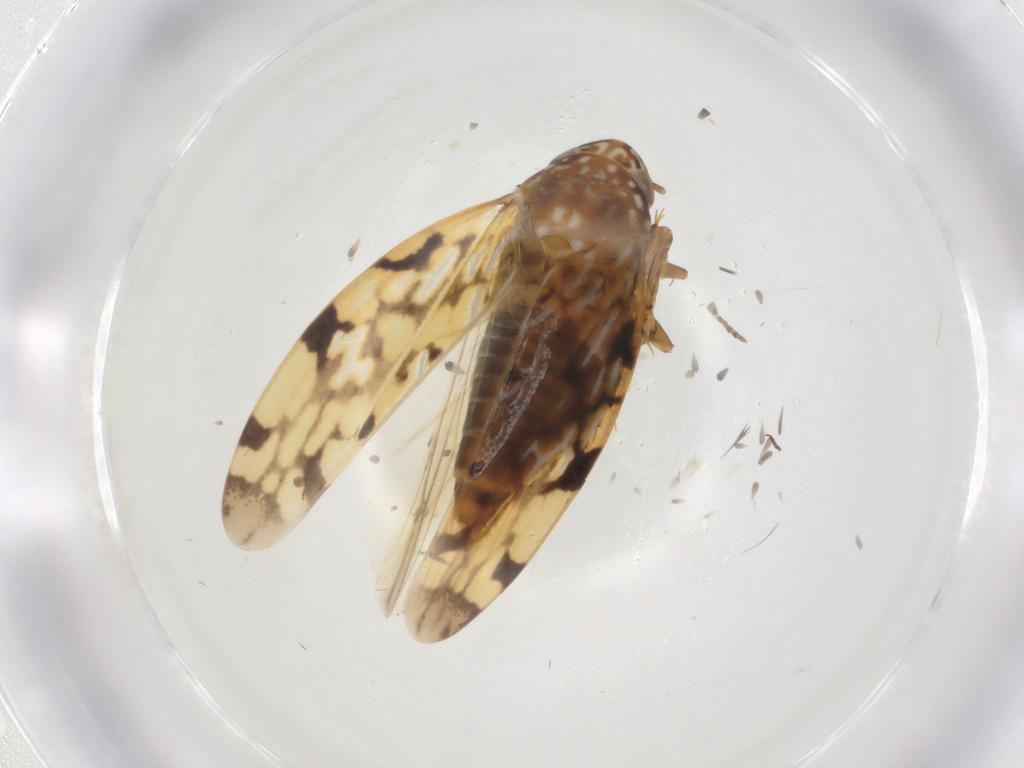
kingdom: Animalia
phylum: Arthropoda
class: Insecta
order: Hemiptera
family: Cicadellidae
